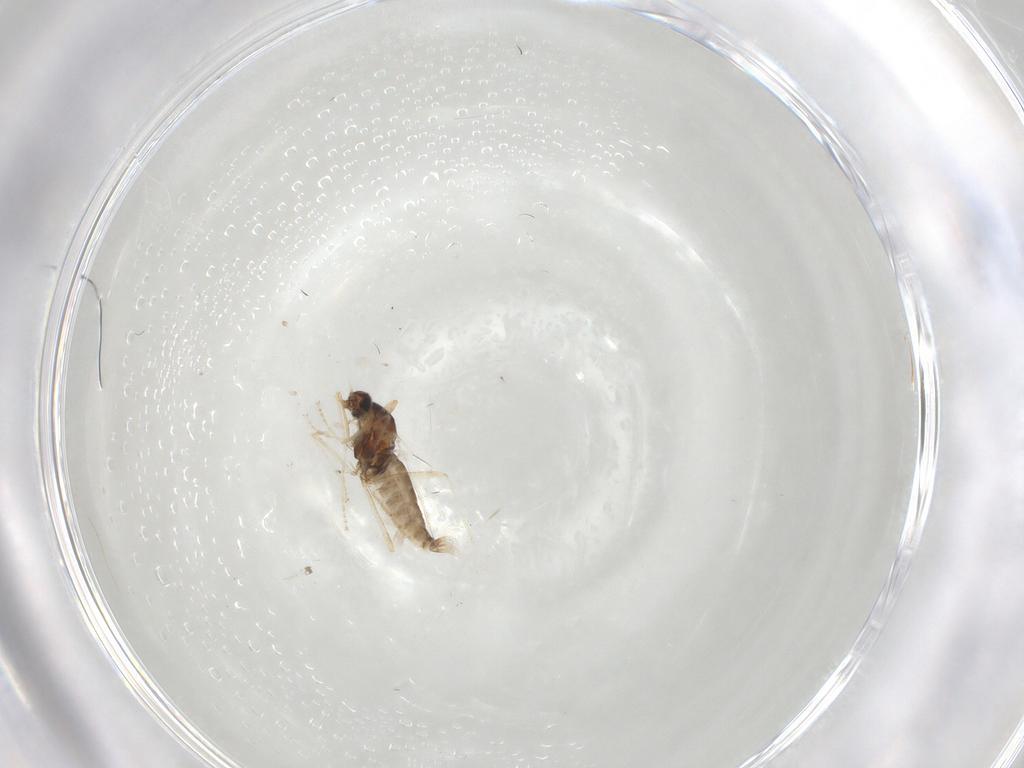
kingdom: Animalia
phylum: Arthropoda
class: Insecta
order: Diptera
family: Cecidomyiidae
